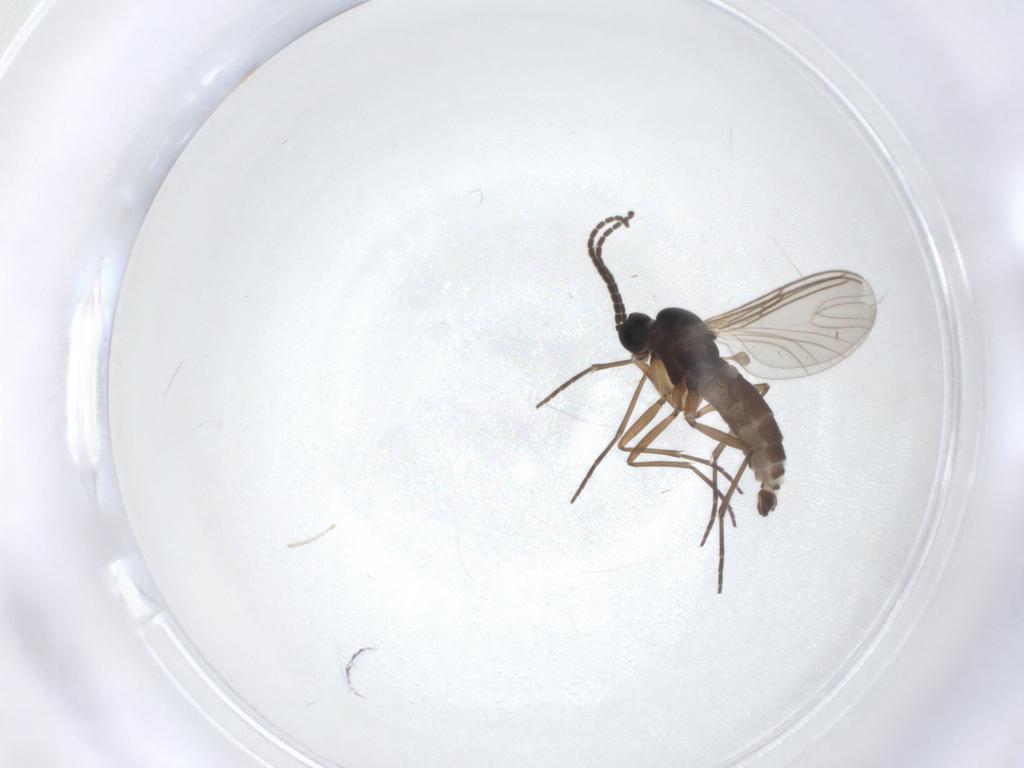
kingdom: Animalia
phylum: Arthropoda
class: Insecta
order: Diptera
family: Sciaridae
